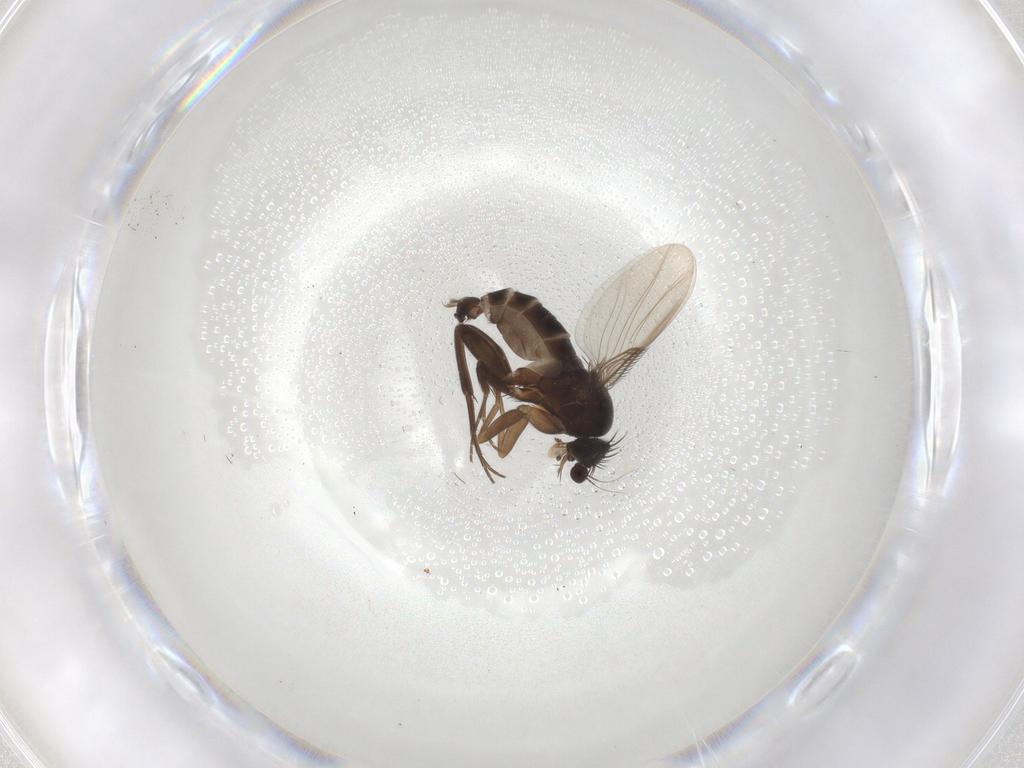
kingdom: Animalia
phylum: Arthropoda
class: Insecta
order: Diptera
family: Phoridae
